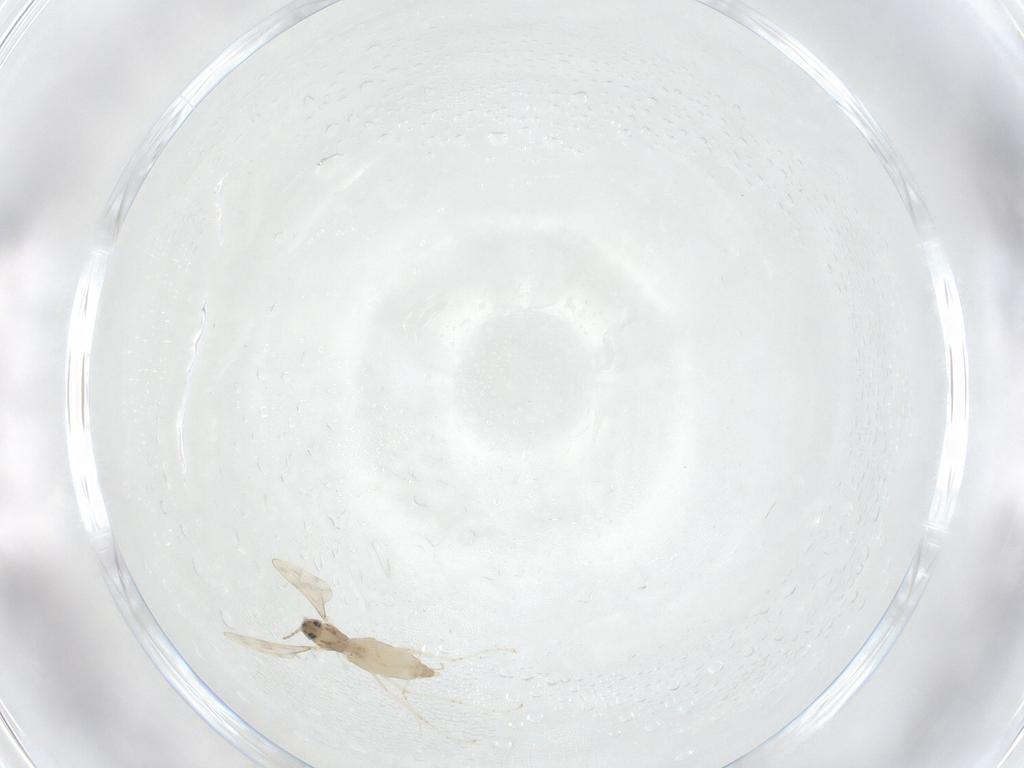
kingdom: Animalia
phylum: Arthropoda
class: Insecta
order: Diptera
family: Cecidomyiidae
